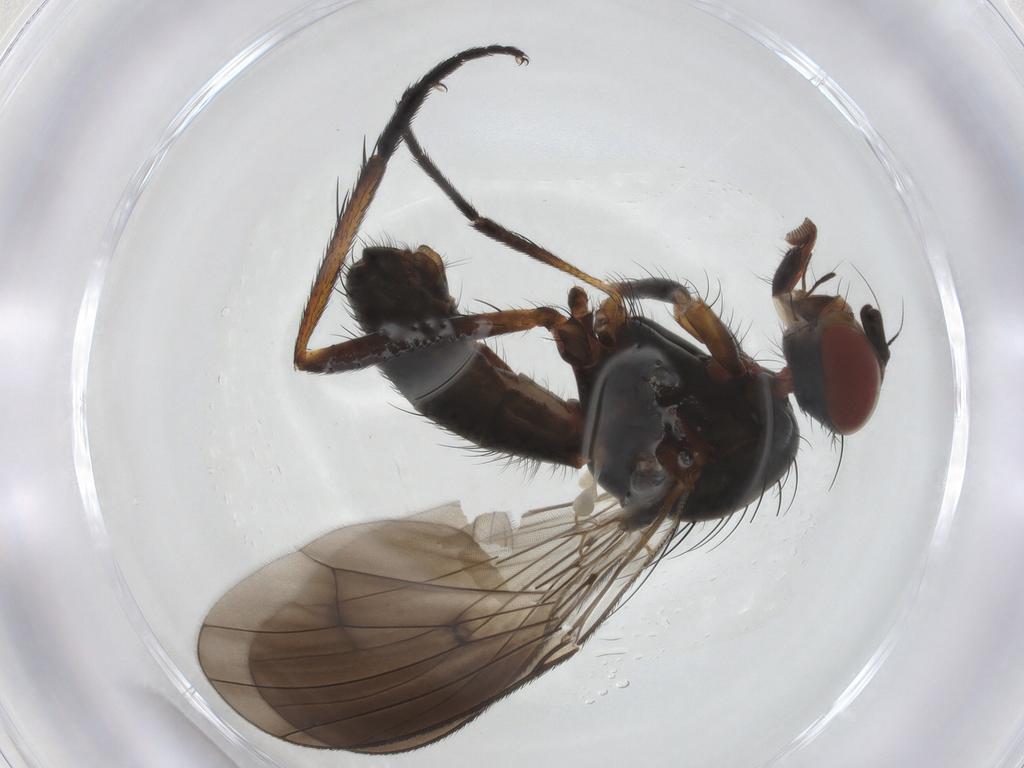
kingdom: Animalia
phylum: Arthropoda
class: Insecta
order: Diptera
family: Anthomyiidae
